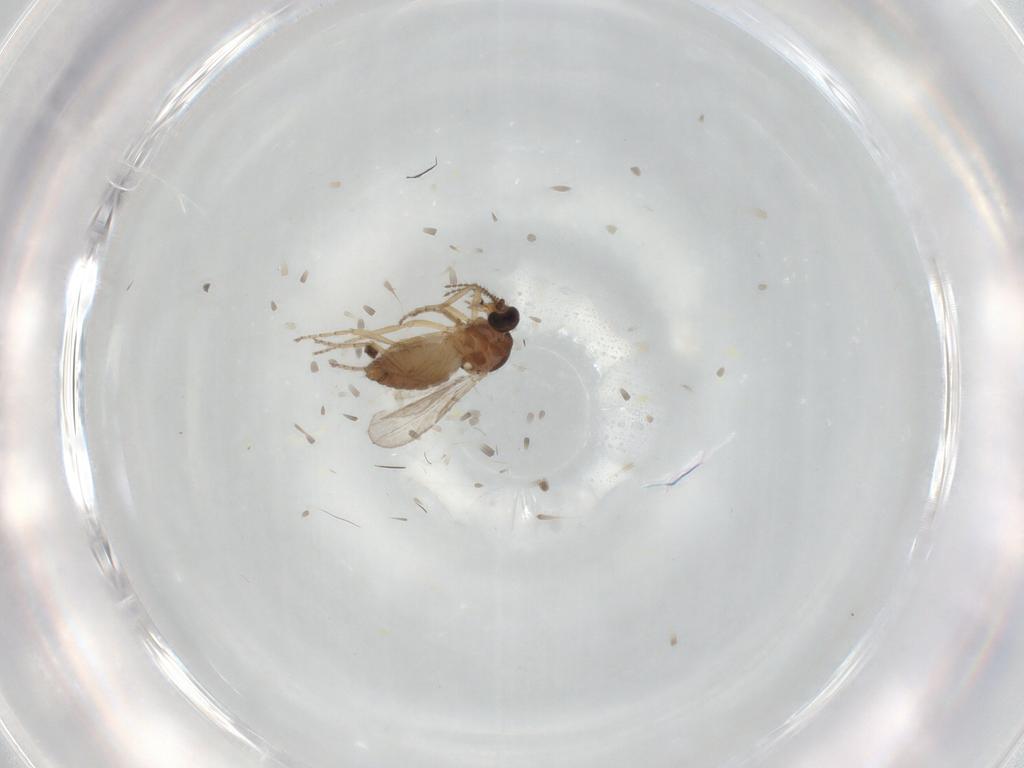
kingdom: Animalia
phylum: Arthropoda
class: Insecta
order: Diptera
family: Ceratopogonidae
